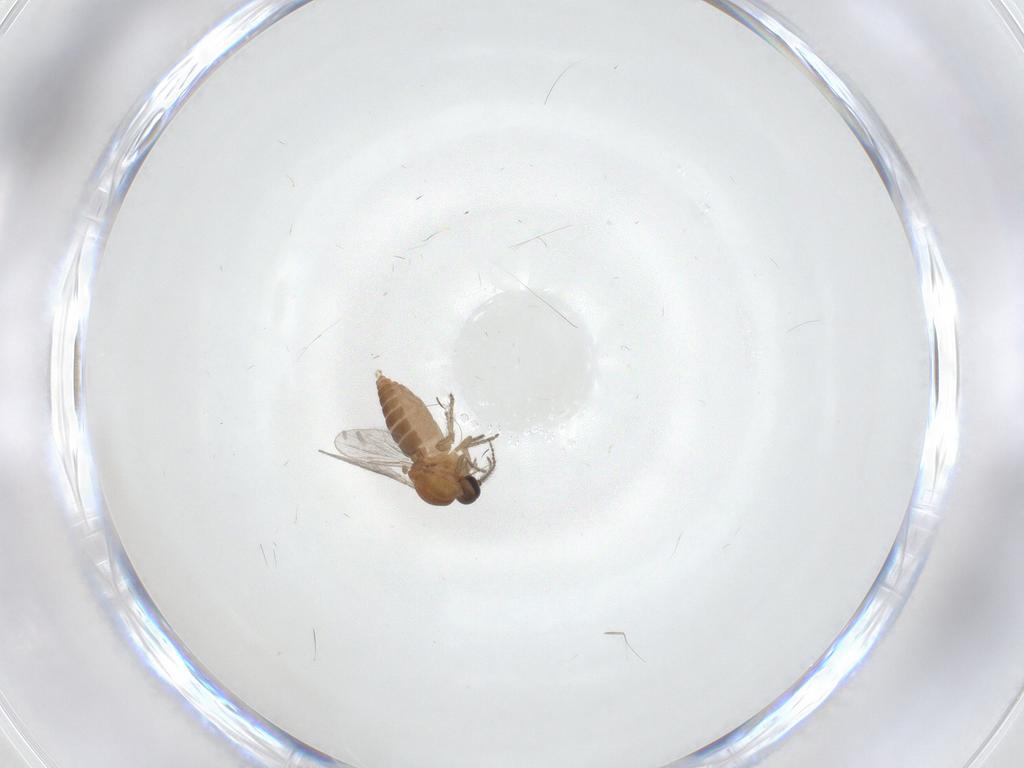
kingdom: Animalia
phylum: Arthropoda
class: Insecta
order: Diptera
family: Ceratopogonidae
